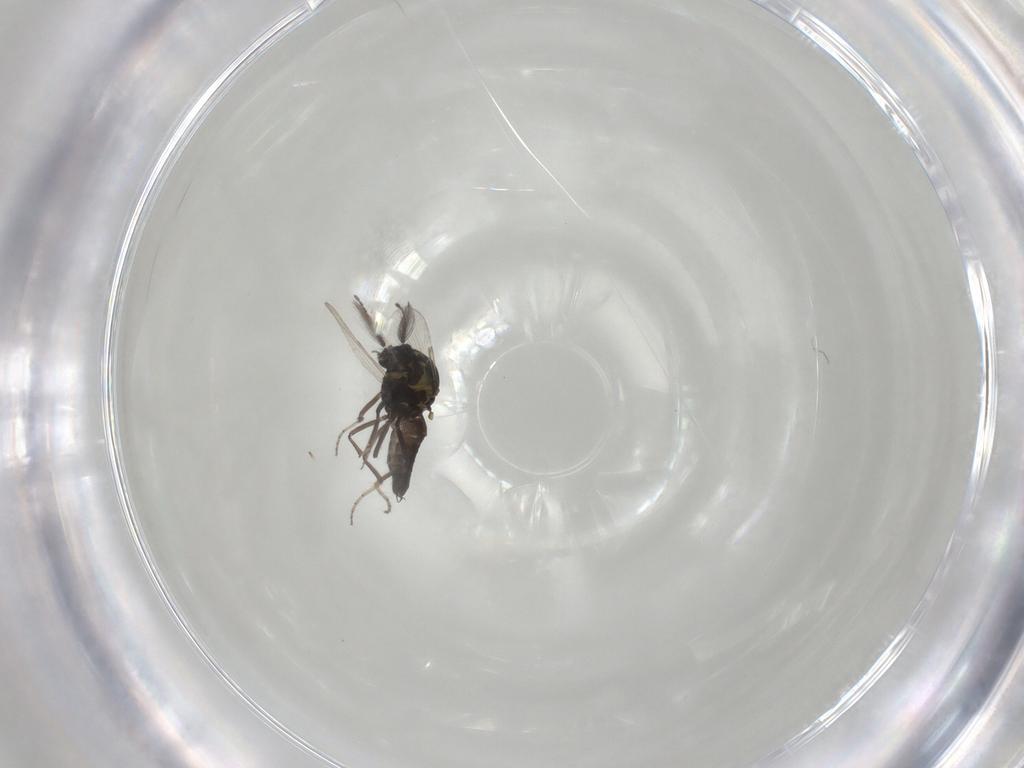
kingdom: Animalia
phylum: Arthropoda
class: Insecta
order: Diptera
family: Ceratopogonidae
